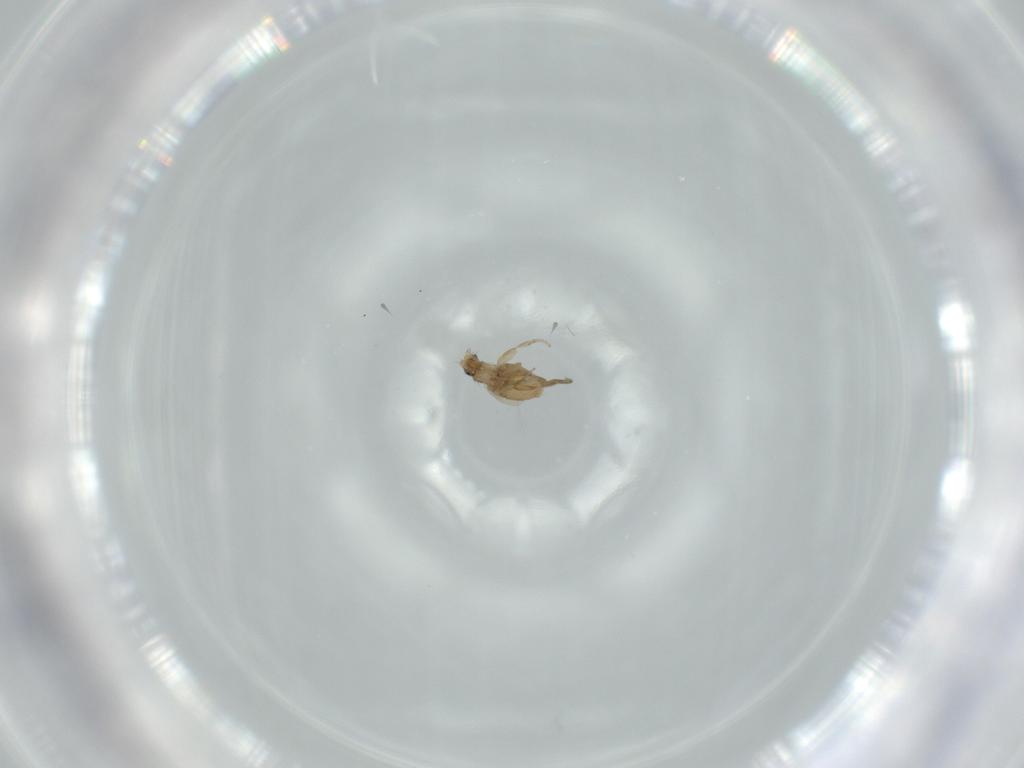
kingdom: Animalia
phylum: Arthropoda
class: Insecta
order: Diptera
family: Phoridae
